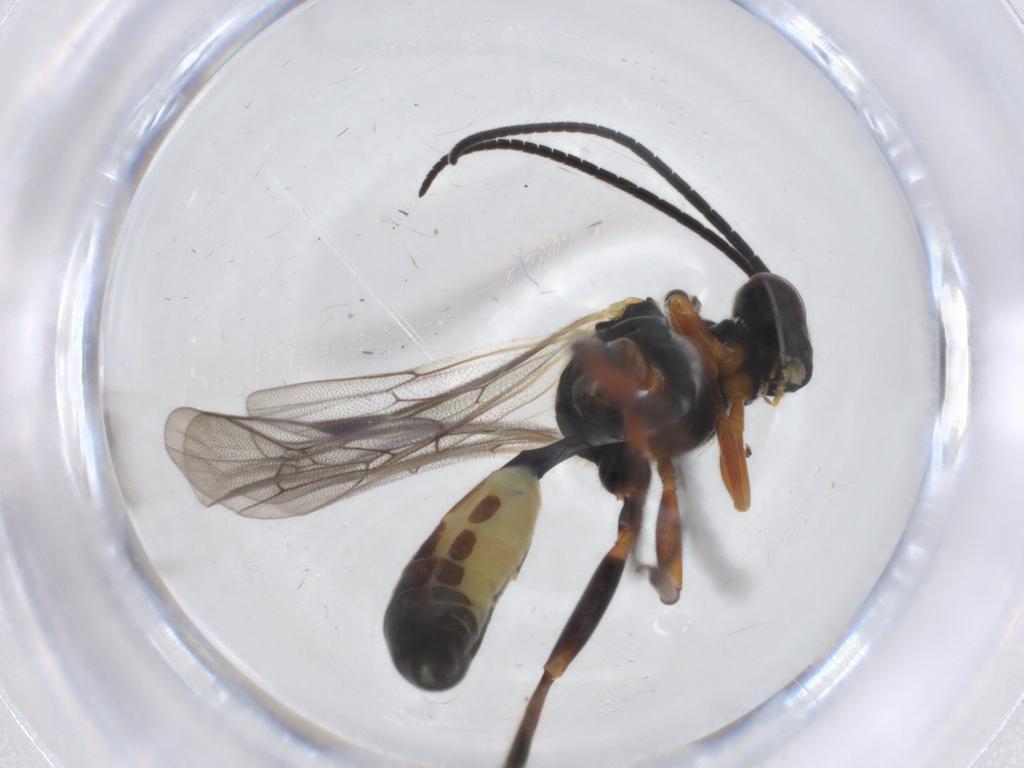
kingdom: Animalia
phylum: Arthropoda
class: Insecta
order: Hymenoptera
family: Ichneumonidae
